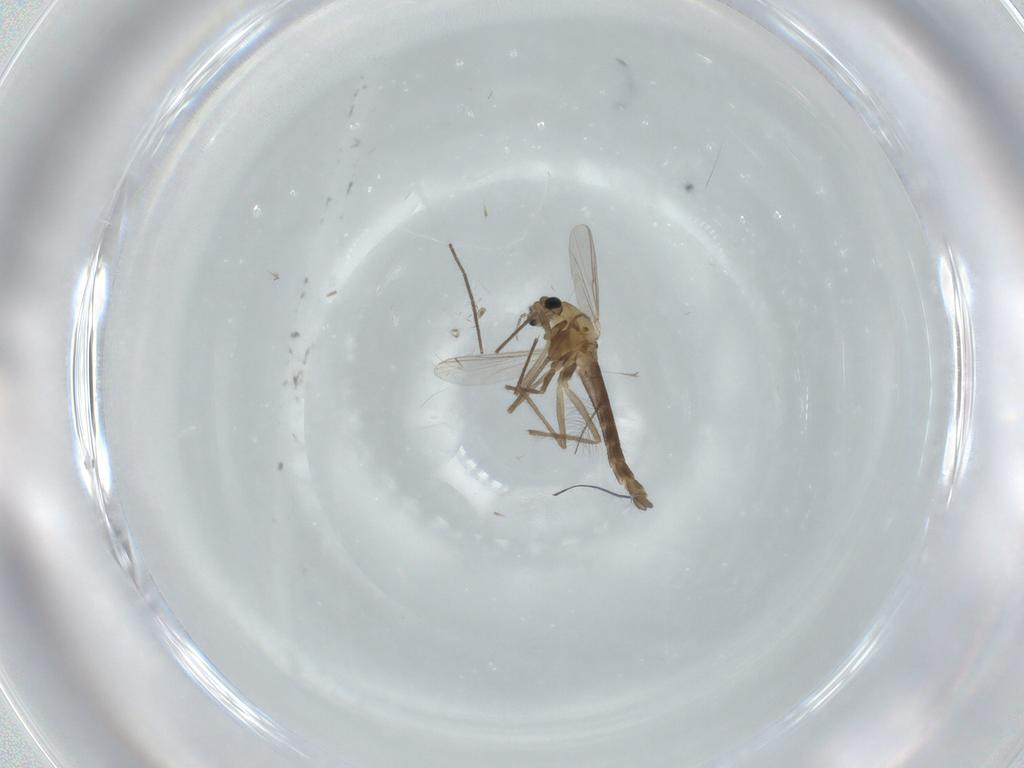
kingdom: Animalia
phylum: Arthropoda
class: Insecta
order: Diptera
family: Chironomidae
